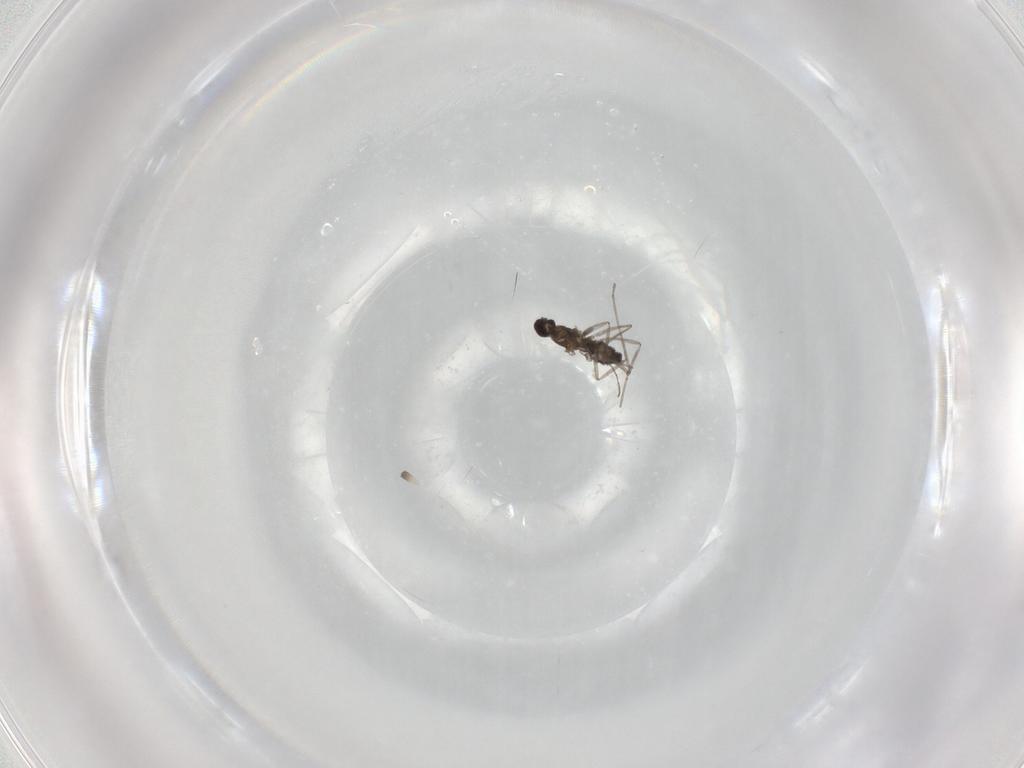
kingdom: Animalia
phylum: Arthropoda
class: Insecta
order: Diptera
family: Cecidomyiidae
